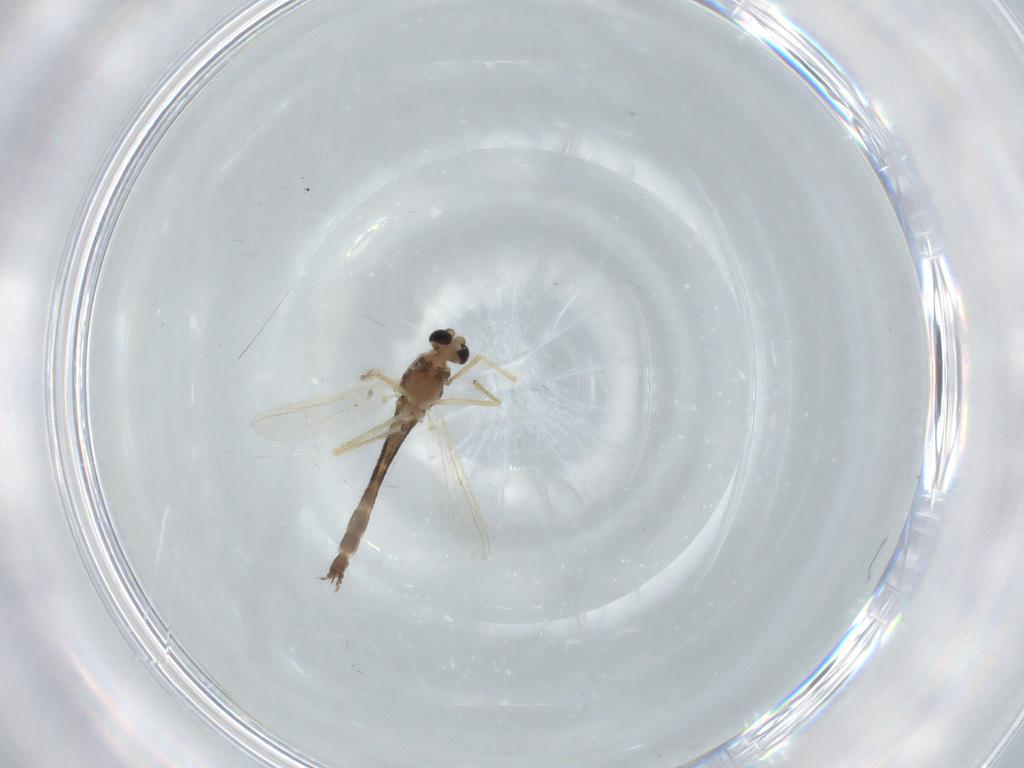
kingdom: Animalia
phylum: Arthropoda
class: Insecta
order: Diptera
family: Chironomidae
